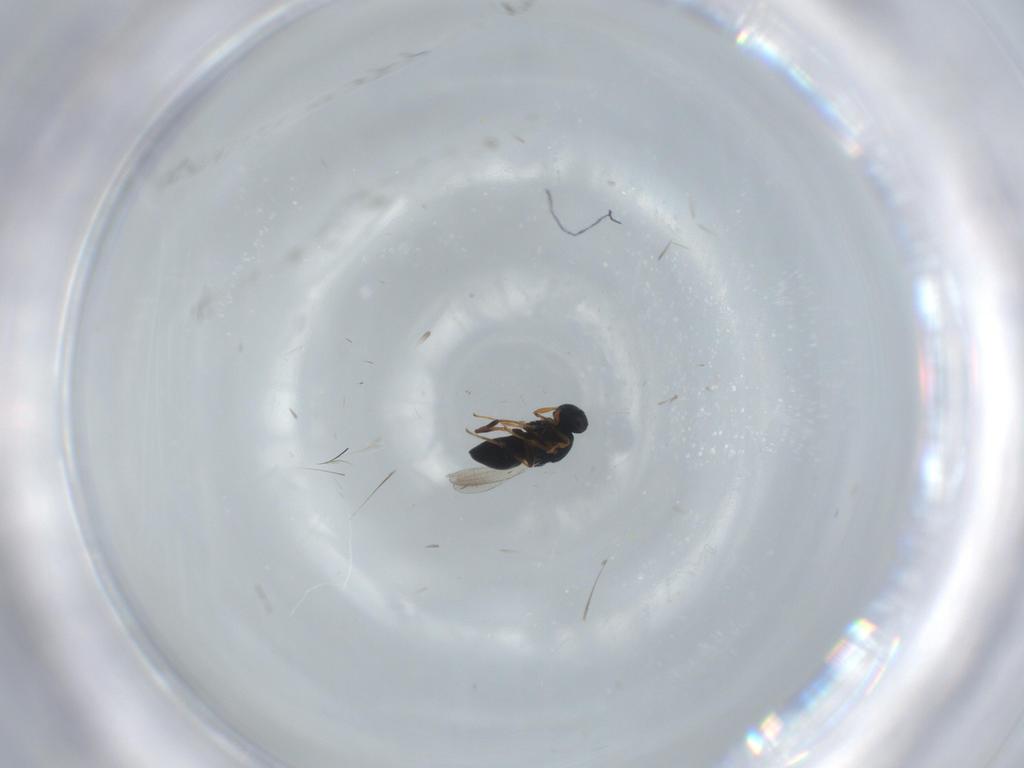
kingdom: Animalia
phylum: Arthropoda
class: Insecta
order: Hymenoptera
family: Platygastridae
